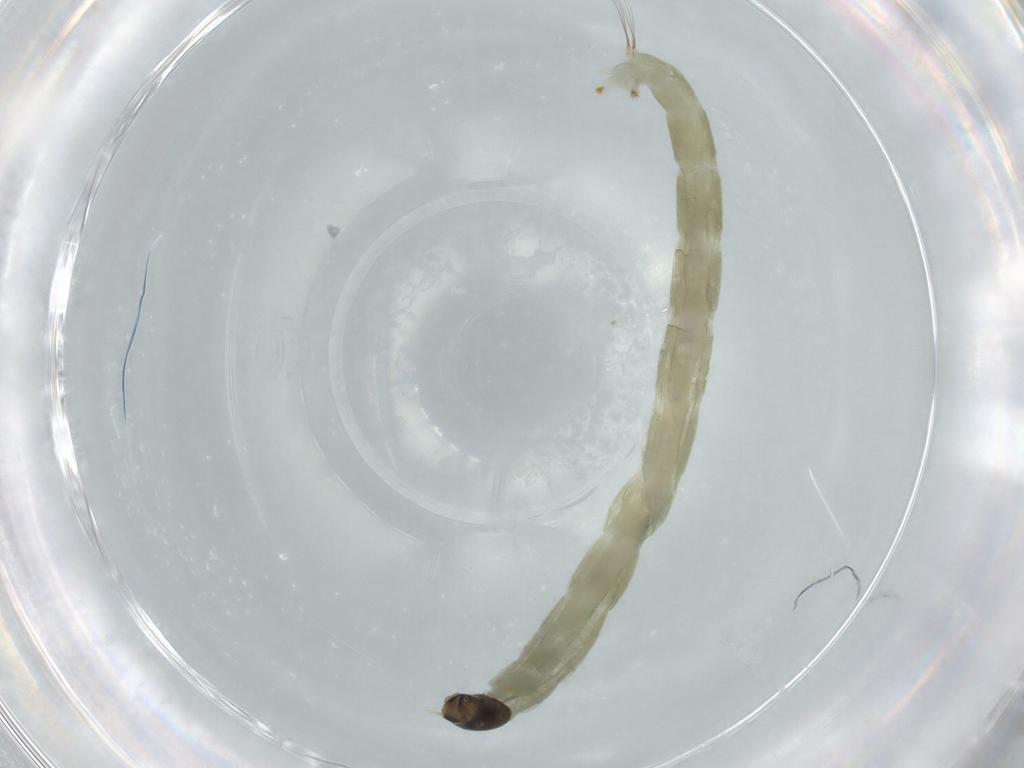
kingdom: Animalia
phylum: Arthropoda
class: Insecta
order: Diptera
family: Chironomidae
